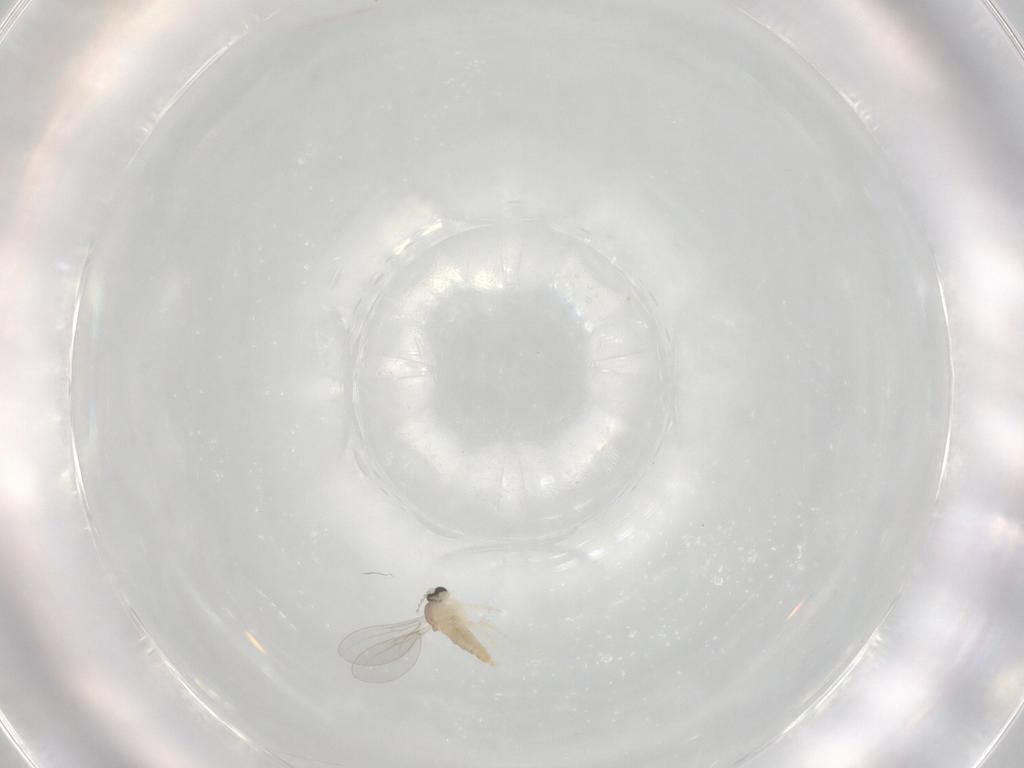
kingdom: Animalia
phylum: Arthropoda
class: Insecta
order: Diptera
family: Cecidomyiidae
